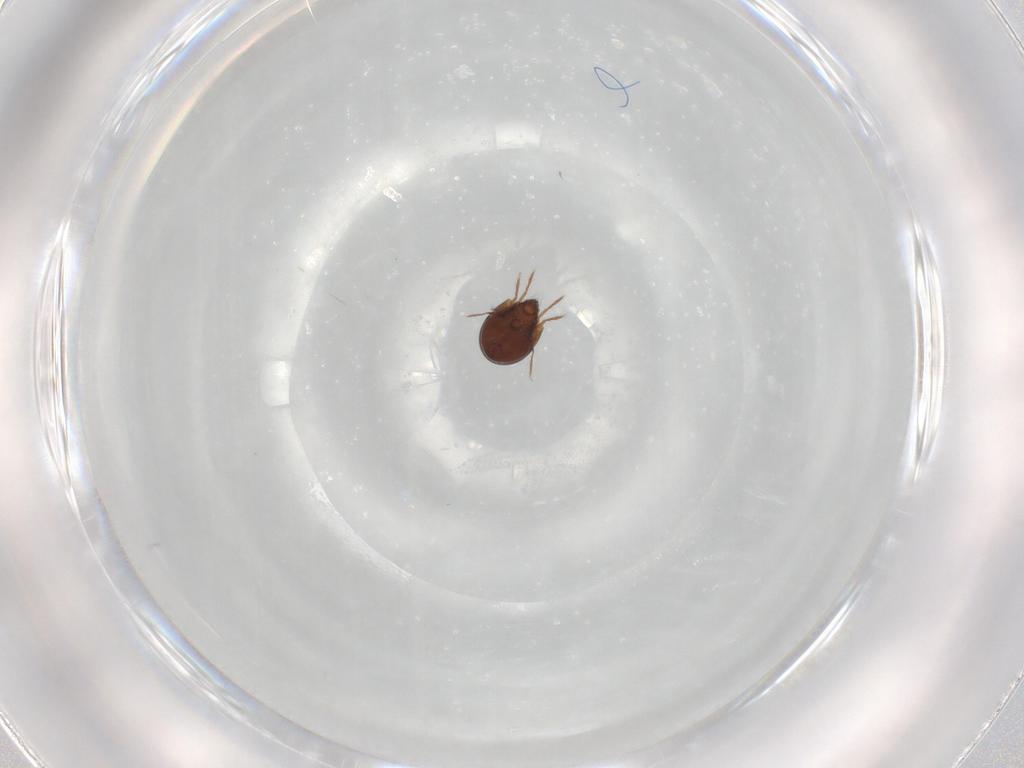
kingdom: Animalia
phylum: Arthropoda
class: Arachnida
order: Sarcoptiformes
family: Humerobatidae
